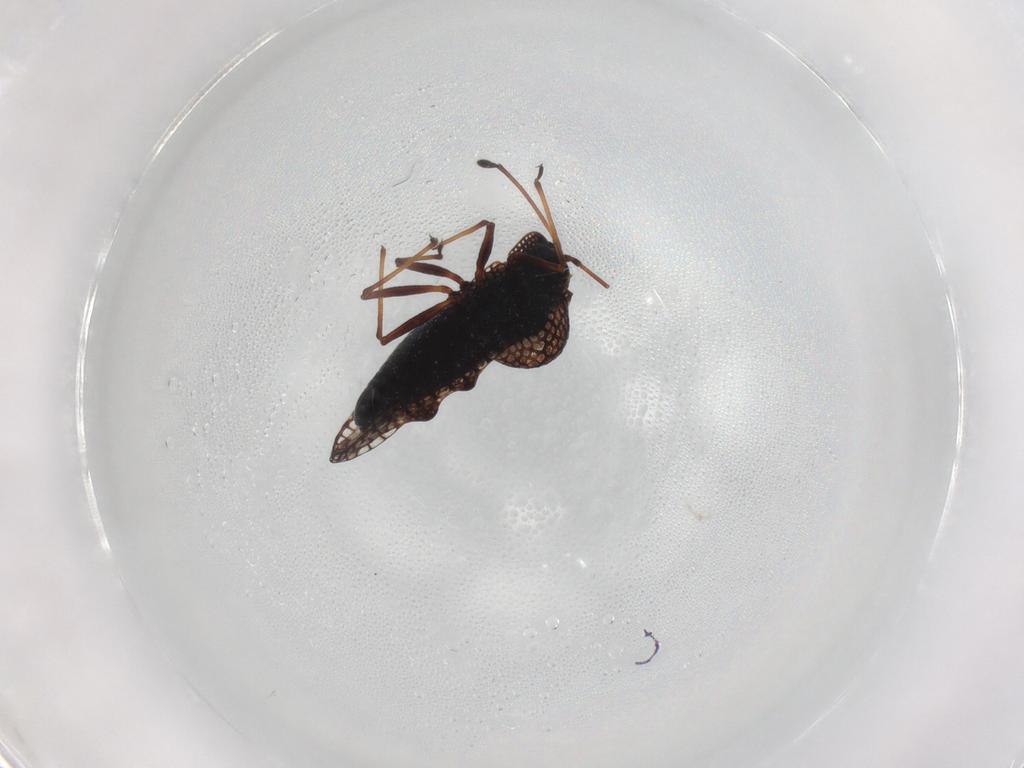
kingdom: Animalia
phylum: Arthropoda
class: Insecta
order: Hemiptera
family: Tingidae
